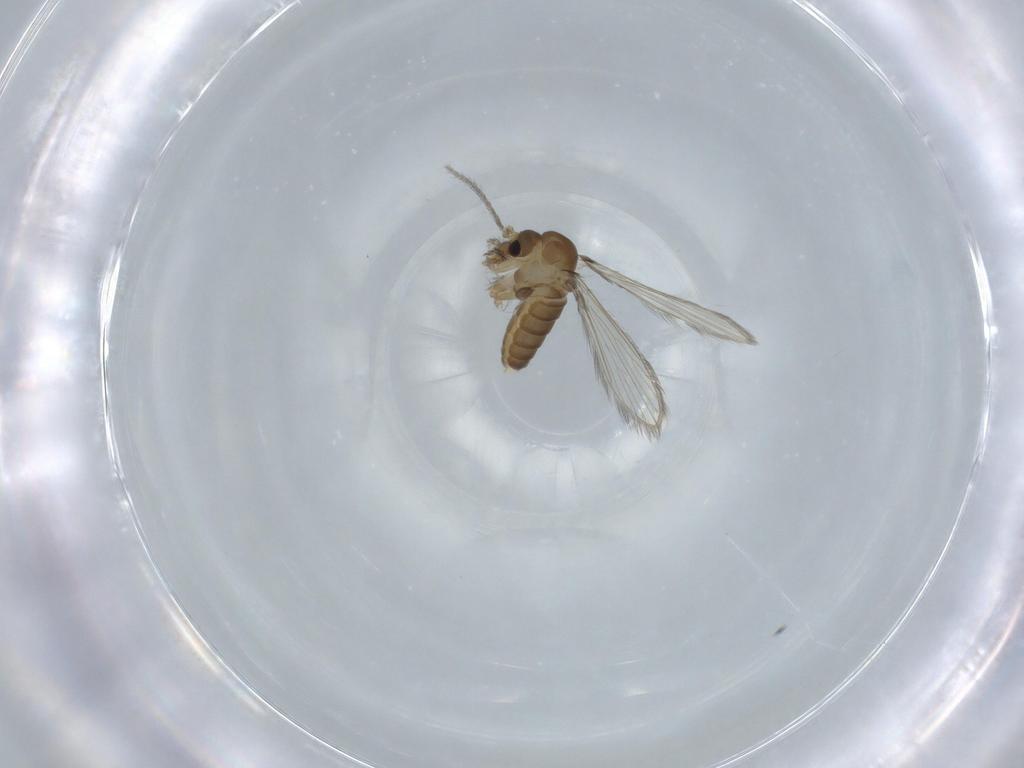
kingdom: Animalia
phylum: Arthropoda
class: Insecta
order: Diptera
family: Psychodidae
